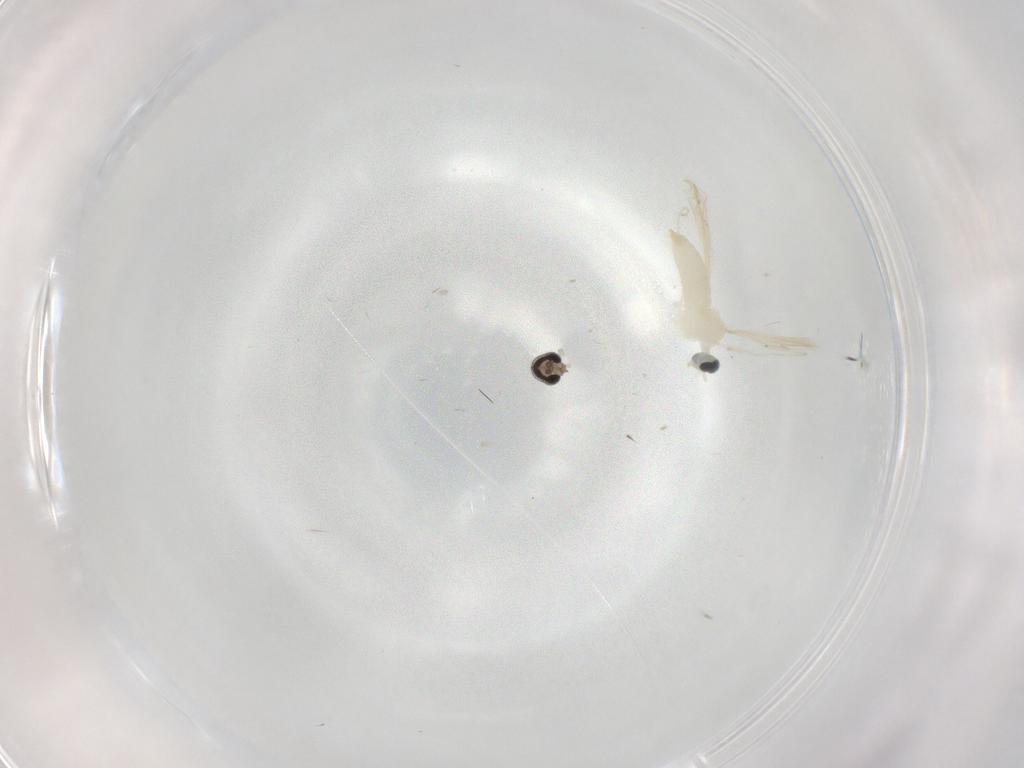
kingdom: Animalia
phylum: Arthropoda
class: Insecta
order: Diptera
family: Cecidomyiidae
